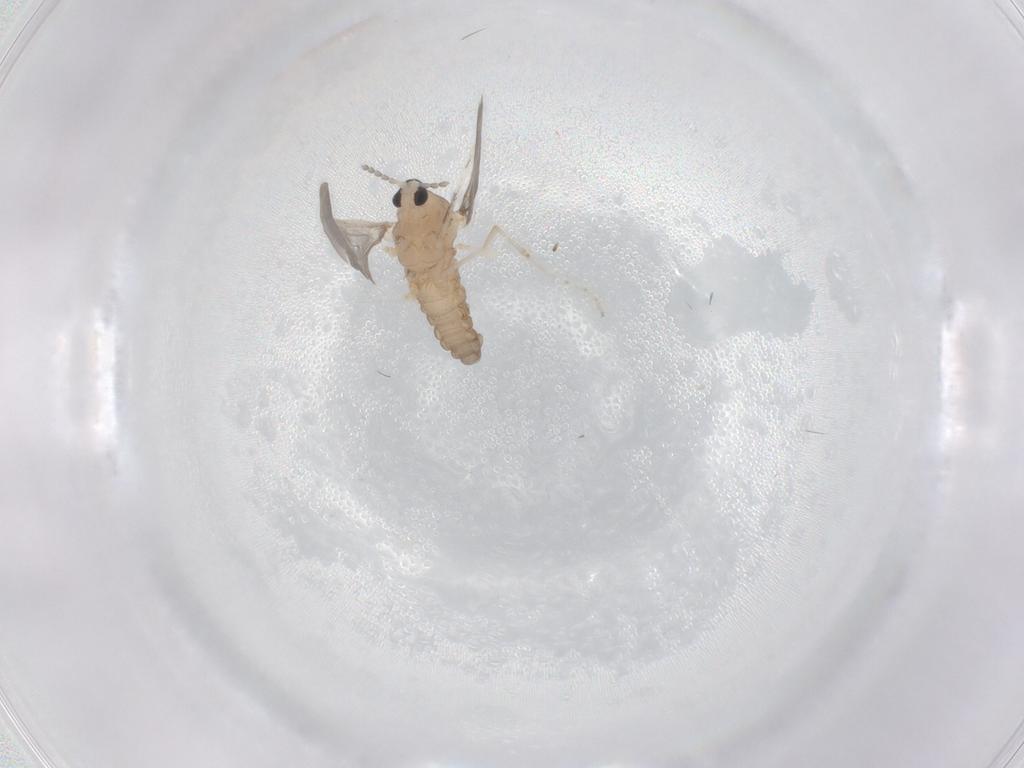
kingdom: Animalia
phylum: Arthropoda
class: Insecta
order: Diptera
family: Cecidomyiidae
